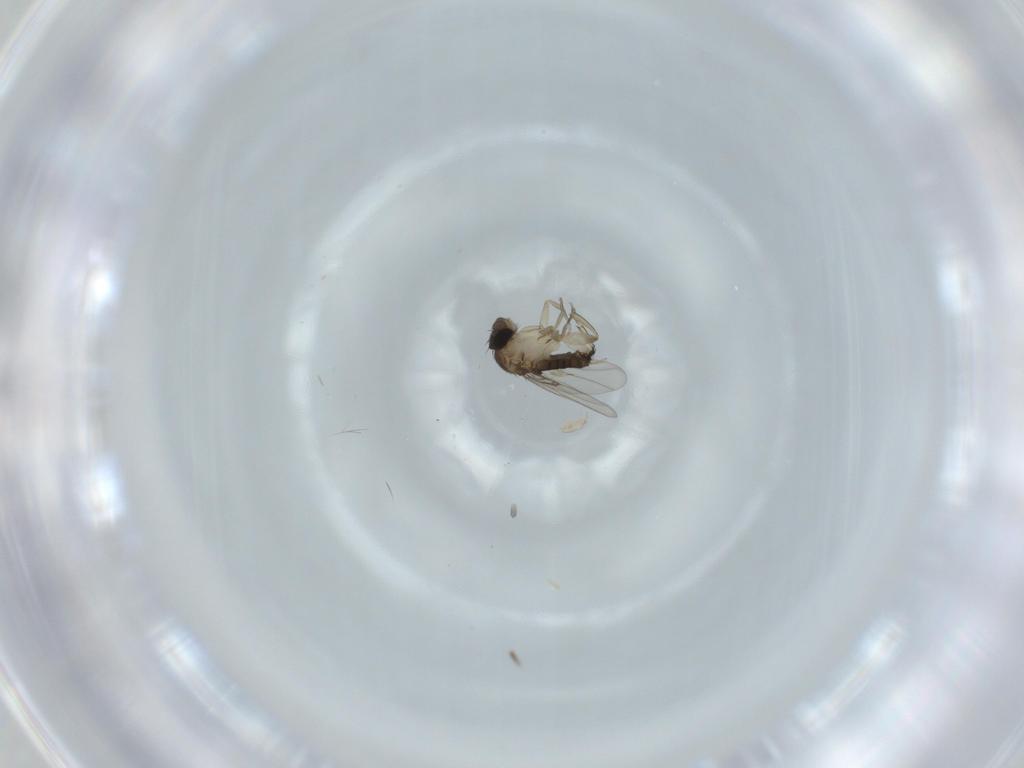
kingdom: Animalia
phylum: Arthropoda
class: Insecta
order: Diptera
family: Phoridae
